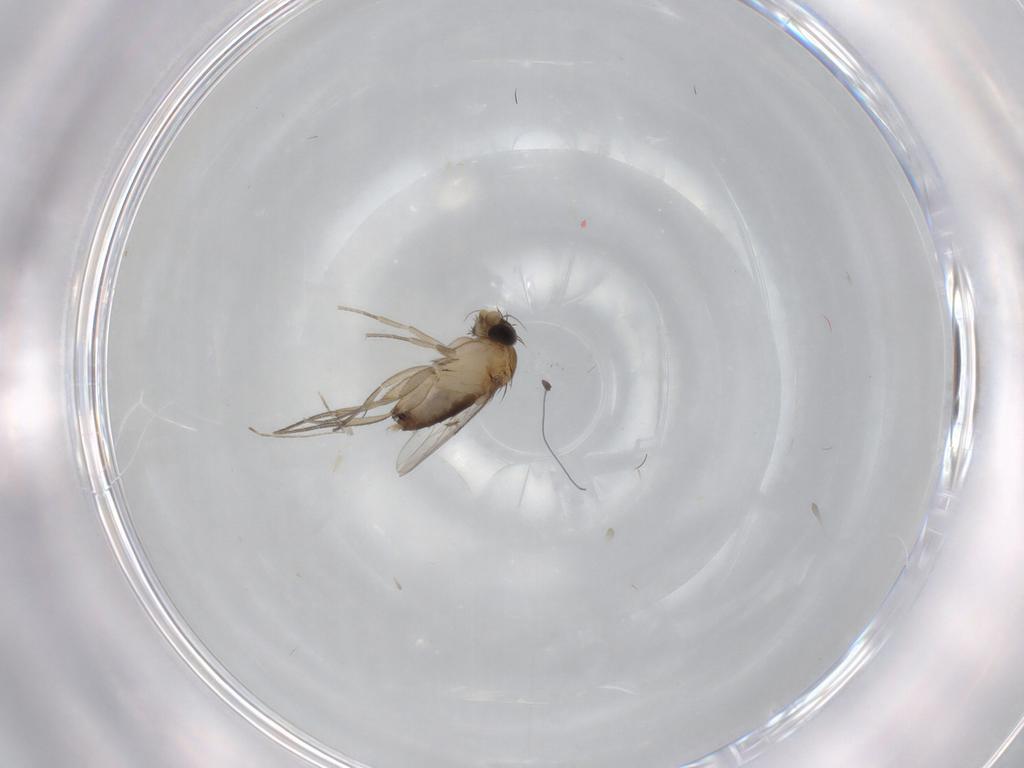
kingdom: Animalia
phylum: Arthropoda
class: Insecta
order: Diptera
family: Phoridae
